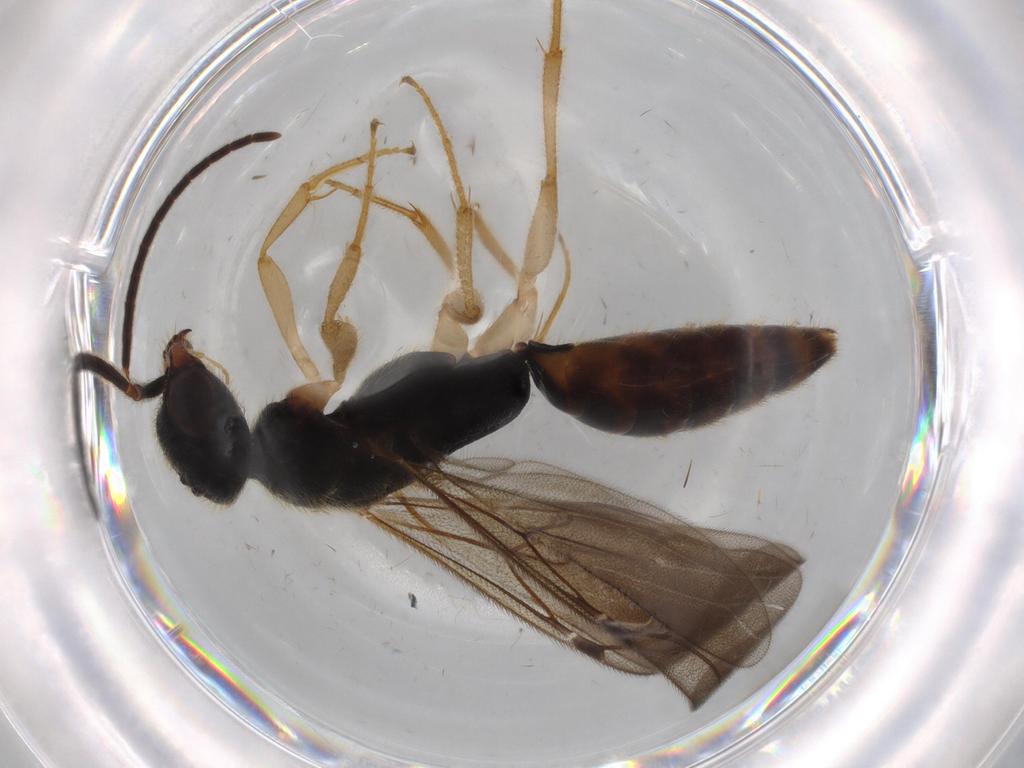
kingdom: Animalia
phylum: Arthropoda
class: Insecta
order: Hymenoptera
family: Bethylidae
